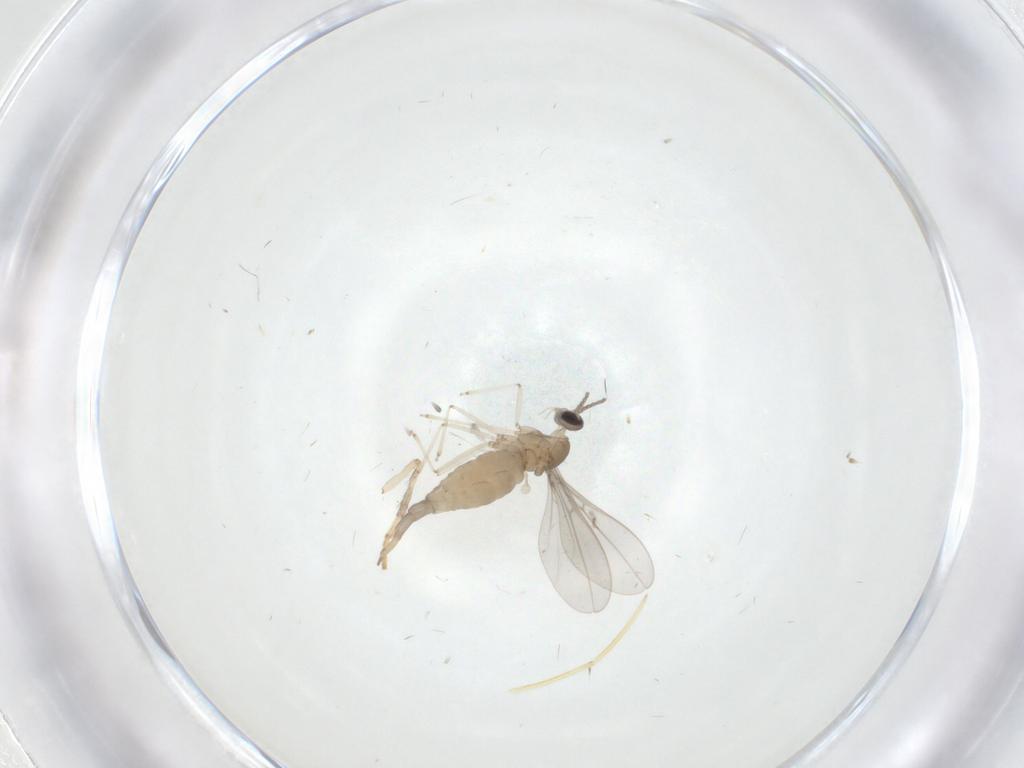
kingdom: Animalia
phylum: Arthropoda
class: Insecta
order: Diptera
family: Cecidomyiidae
